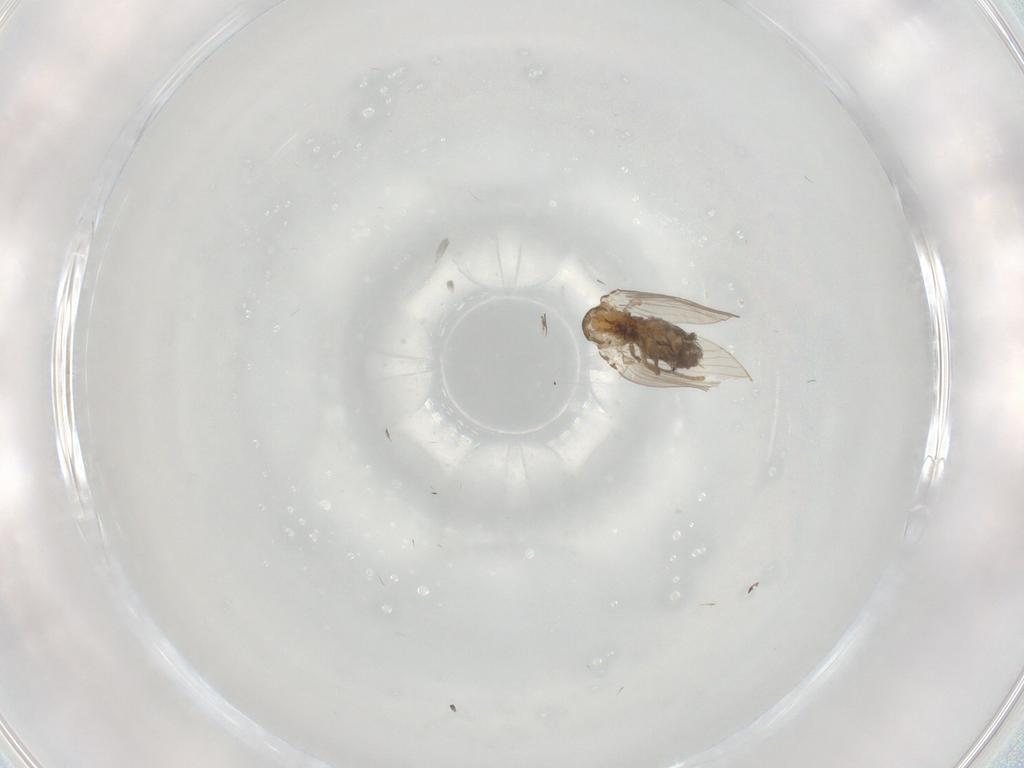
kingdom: Animalia
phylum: Arthropoda
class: Insecta
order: Diptera
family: Psychodidae
